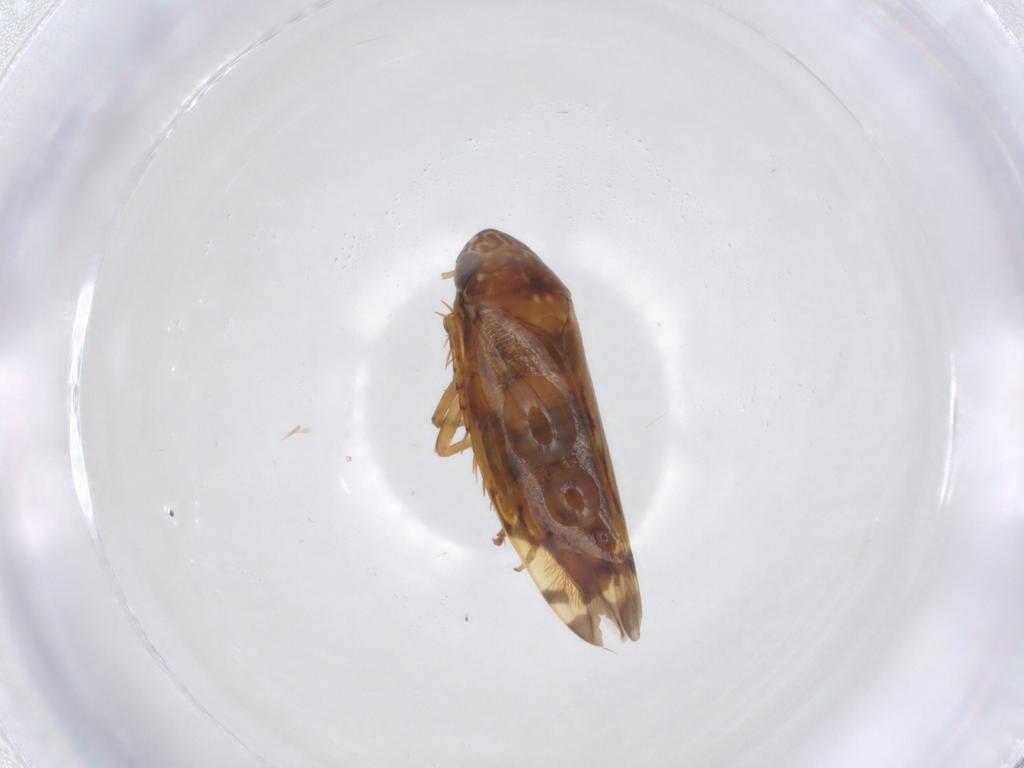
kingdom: Animalia
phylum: Arthropoda
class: Insecta
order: Hemiptera
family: Cicadellidae
